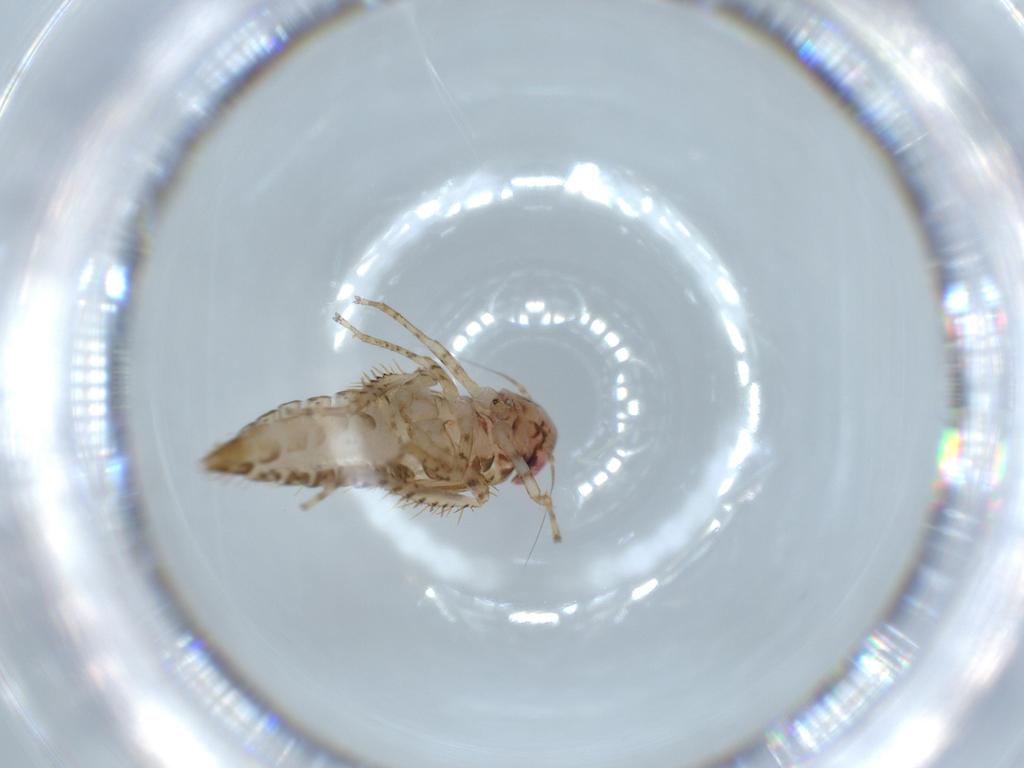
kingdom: Animalia
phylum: Arthropoda
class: Insecta
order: Hemiptera
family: Cicadellidae
